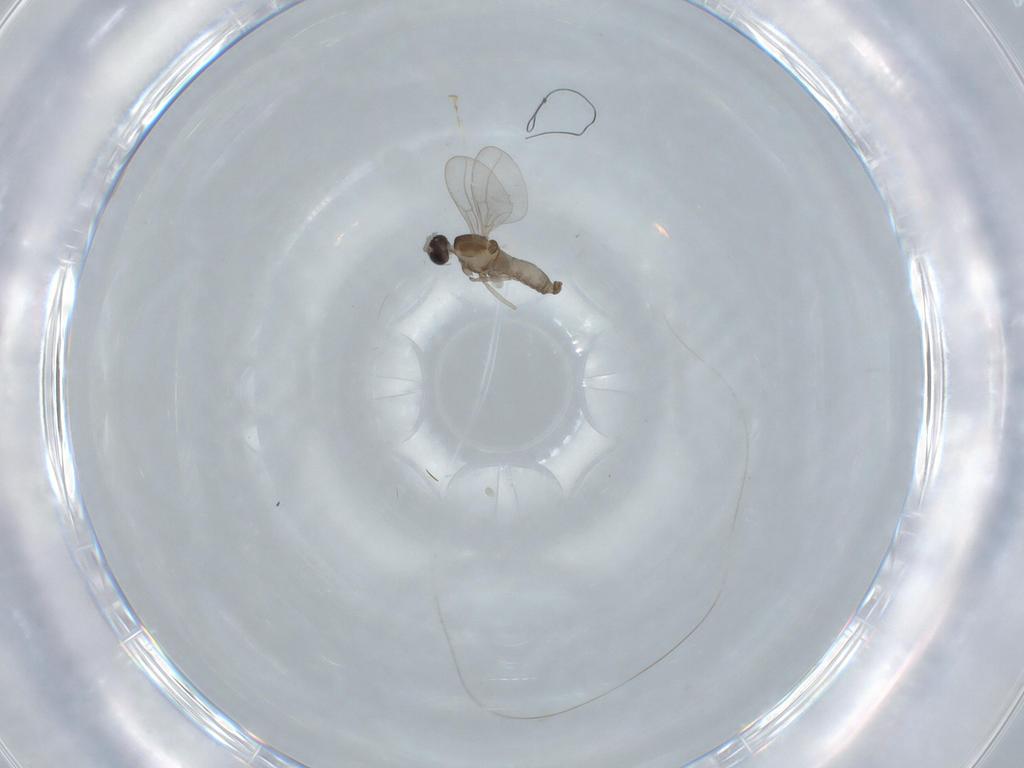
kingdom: Animalia
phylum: Arthropoda
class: Insecta
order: Diptera
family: Cecidomyiidae
